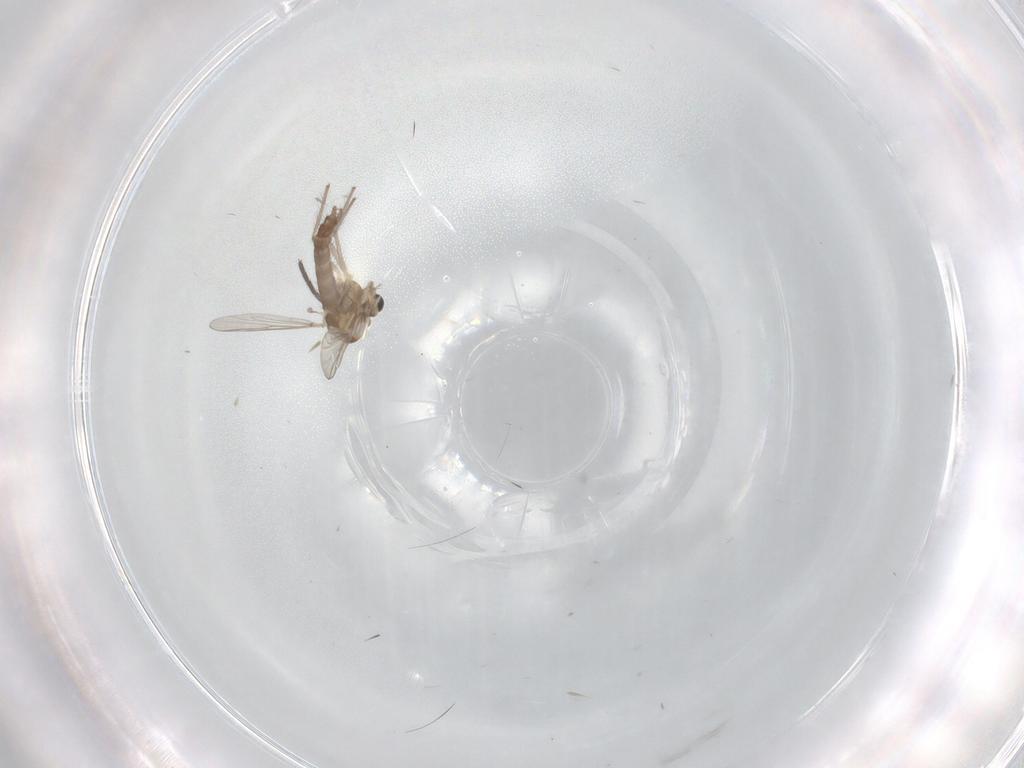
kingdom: Animalia
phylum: Arthropoda
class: Insecta
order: Diptera
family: Chironomidae
